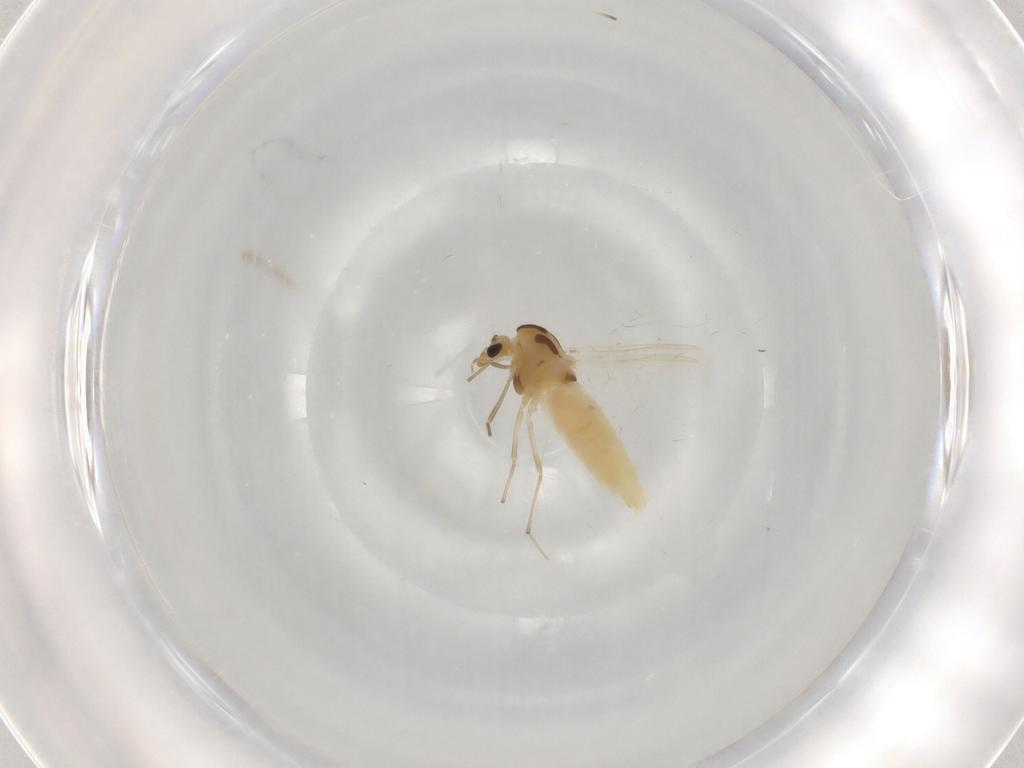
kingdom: Animalia
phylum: Arthropoda
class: Insecta
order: Diptera
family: Chironomidae
